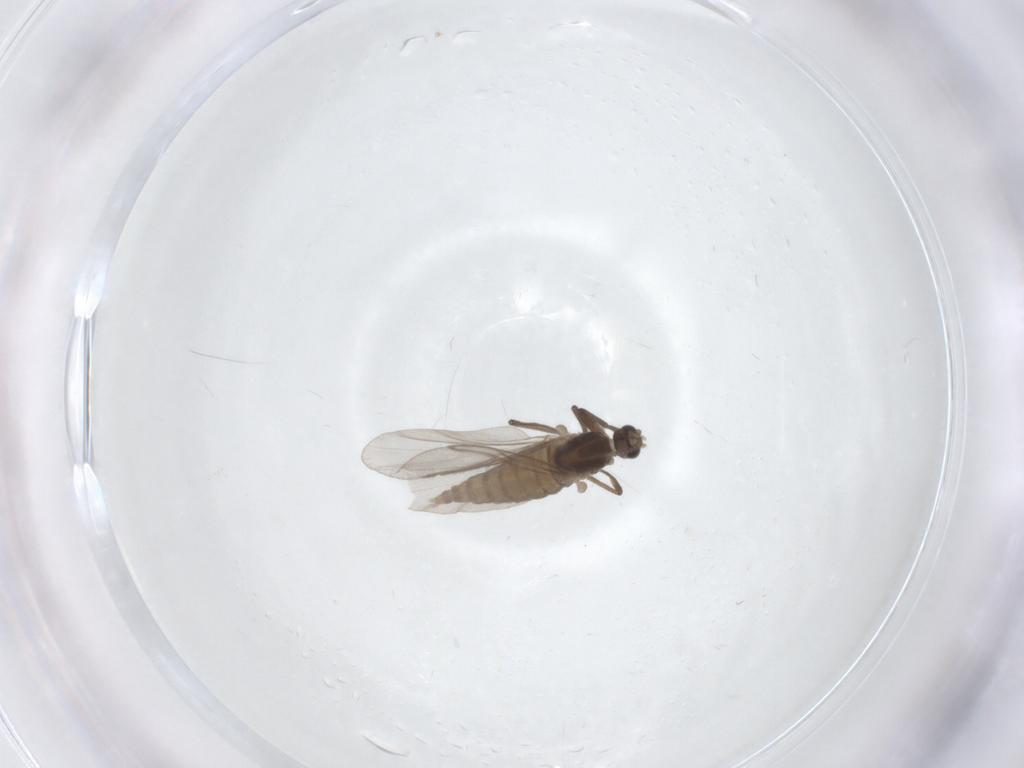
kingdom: Animalia
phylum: Arthropoda
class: Insecta
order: Diptera
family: Cecidomyiidae
